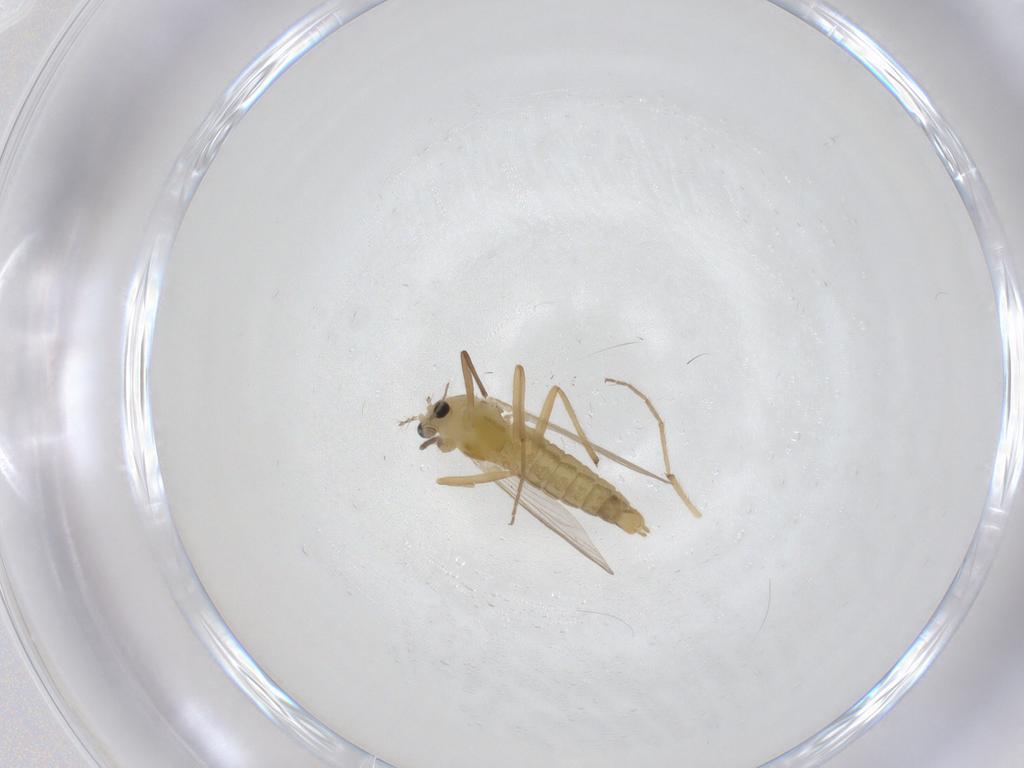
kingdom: Animalia
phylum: Arthropoda
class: Insecta
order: Diptera
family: Chironomidae
